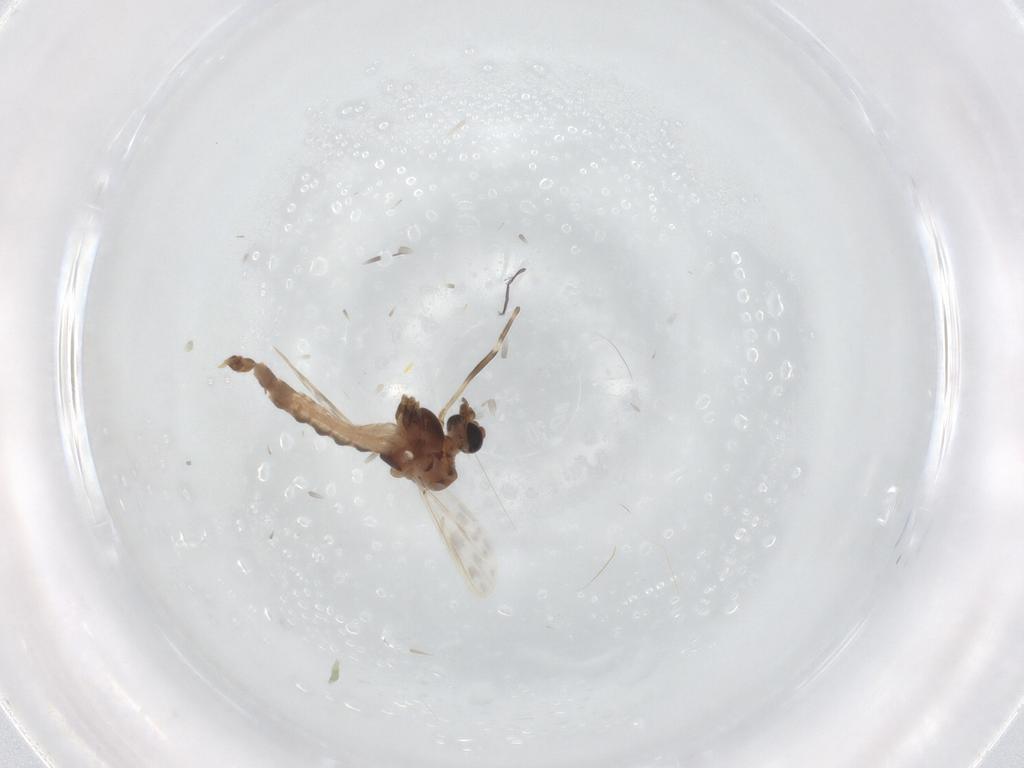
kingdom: Animalia
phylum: Arthropoda
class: Insecta
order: Diptera
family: Chironomidae
